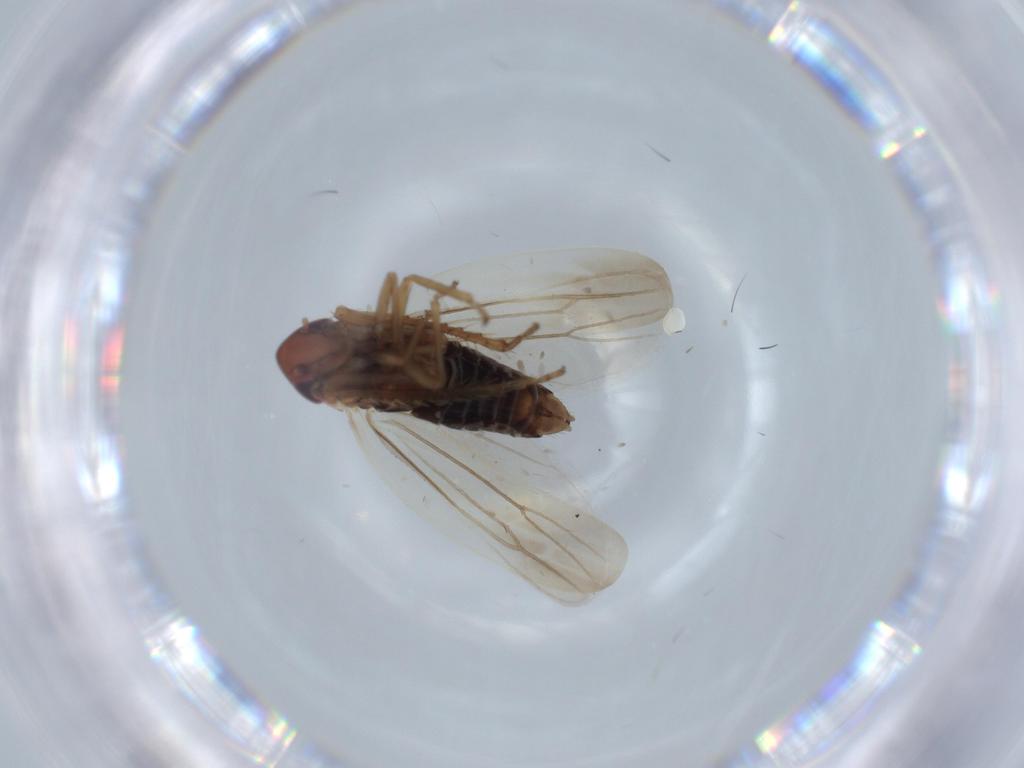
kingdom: Animalia
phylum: Arthropoda
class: Insecta
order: Hemiptera
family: Cicadellidae
